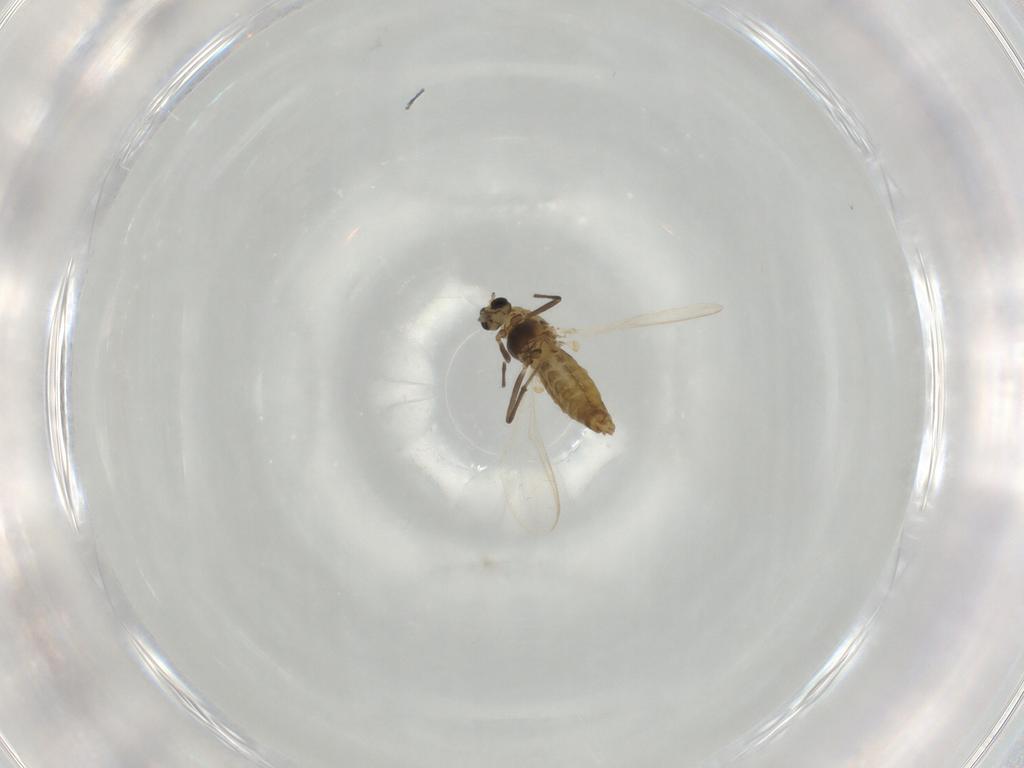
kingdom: Animalia
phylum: Arthropoda
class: Insecta
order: Diptera
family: Chironomidae
